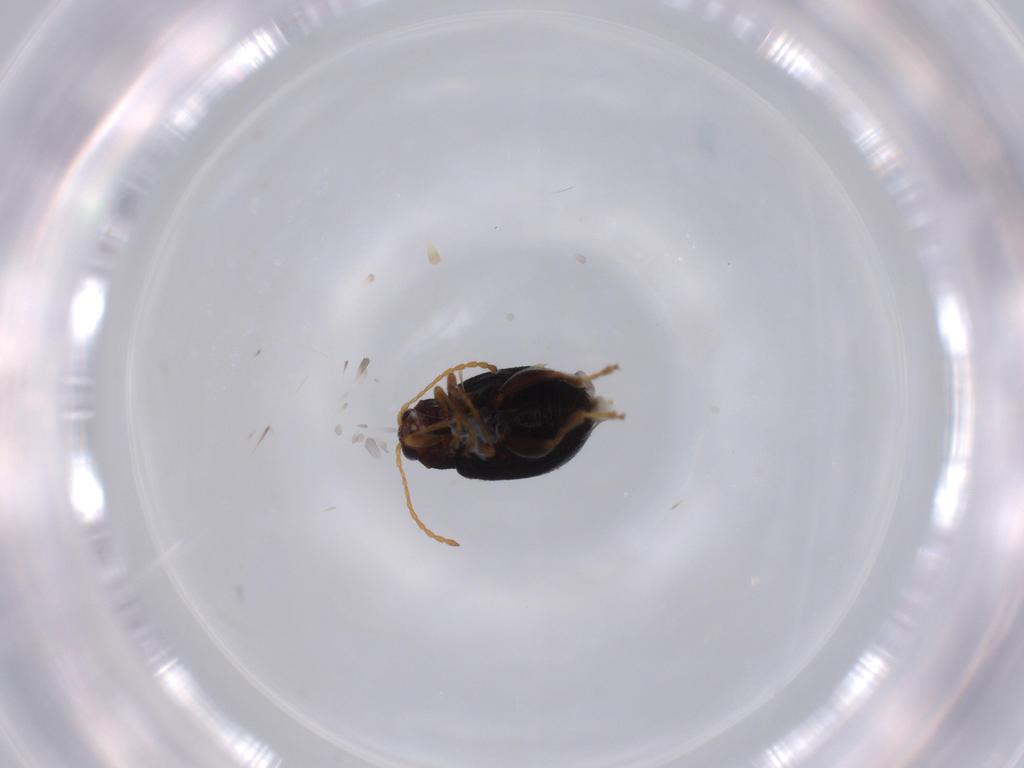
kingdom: Animalia
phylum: Arthropoda
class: Insecta
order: Coleoptera
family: Chrysomelidae
